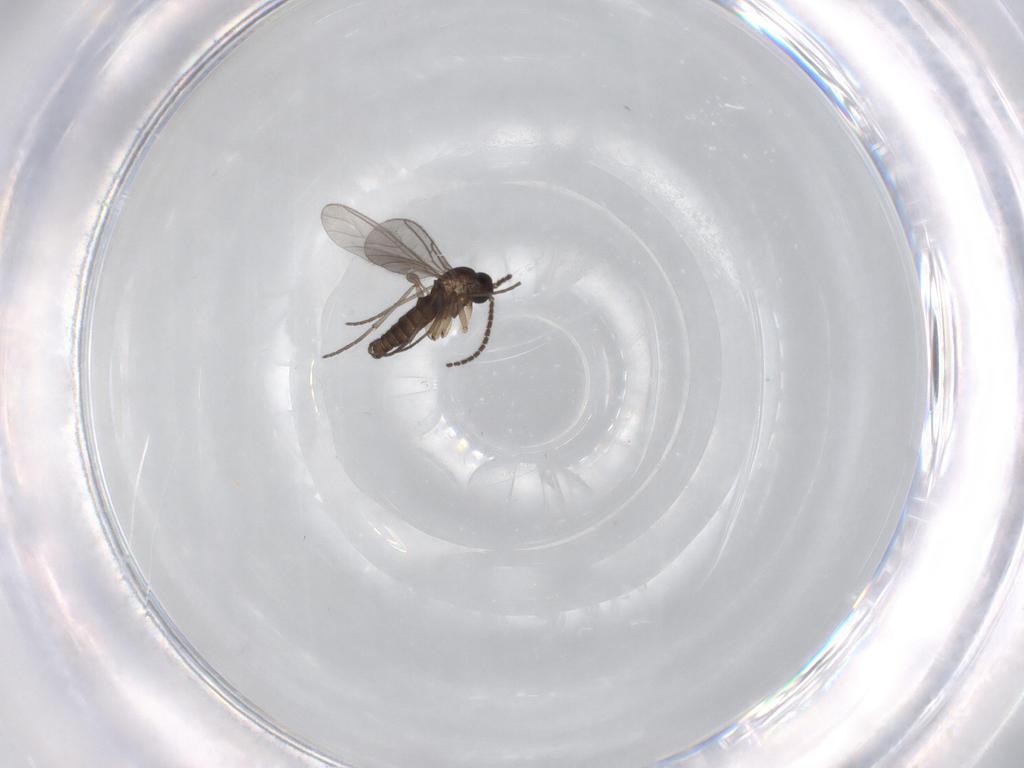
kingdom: Animalia
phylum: Arthropoda
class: Insecta
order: Diptera
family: Sciaridae
